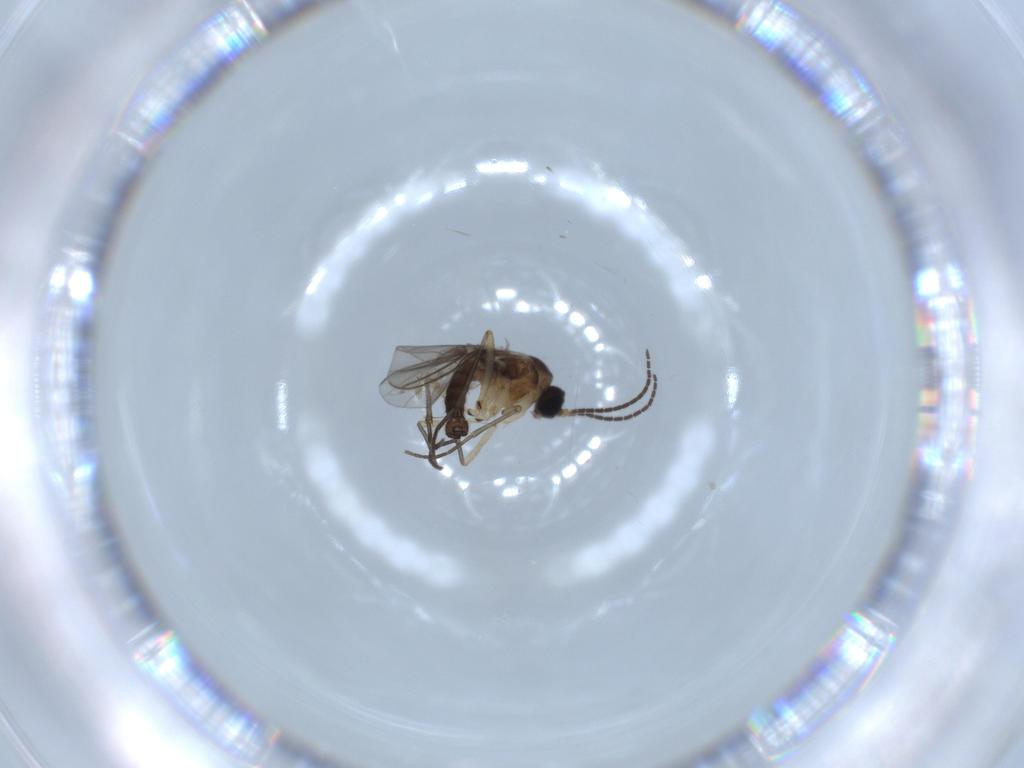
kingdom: Animalia
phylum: Arthropoda
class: Insecta
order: Diptera
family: Sciaridae
